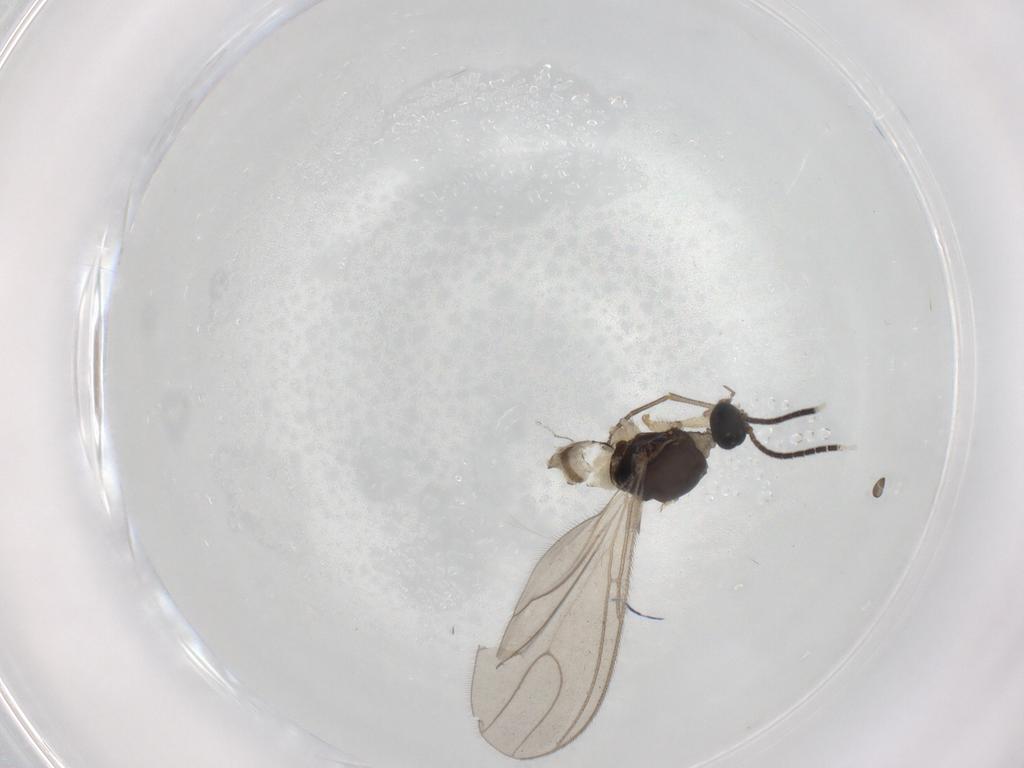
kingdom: Animalia
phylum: Arthropoda
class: Insecta
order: Diptera
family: Sciaridae
